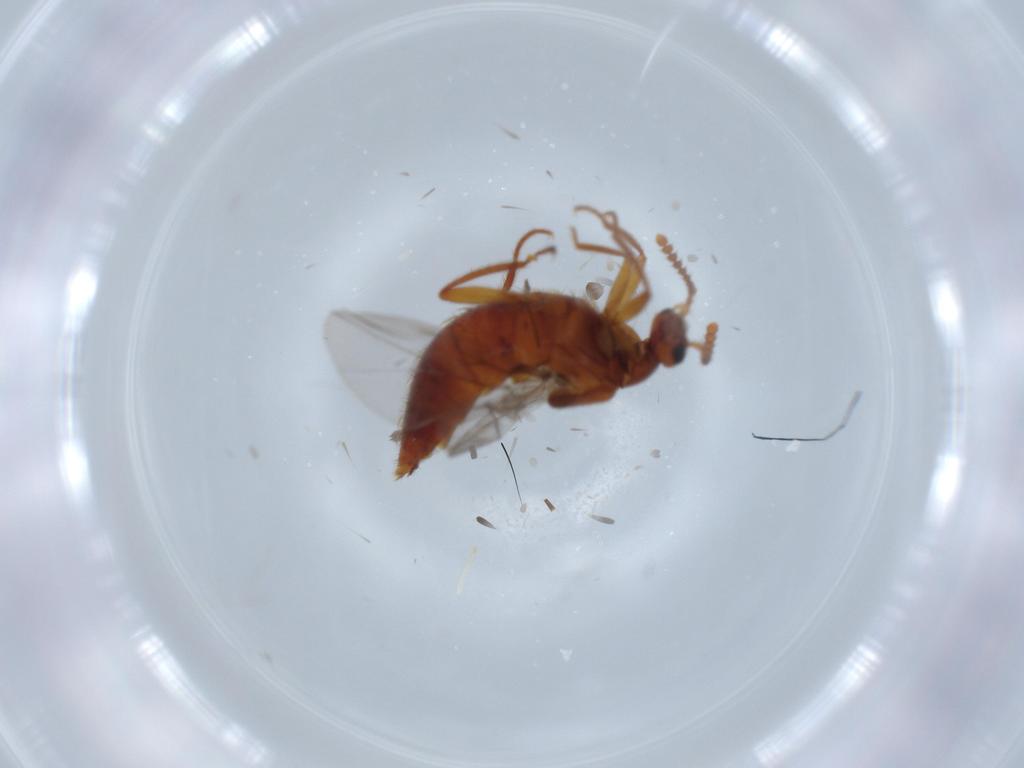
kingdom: Animalia
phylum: Arthropoda
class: Insecta
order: Coleoptera
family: Staphylinidae
